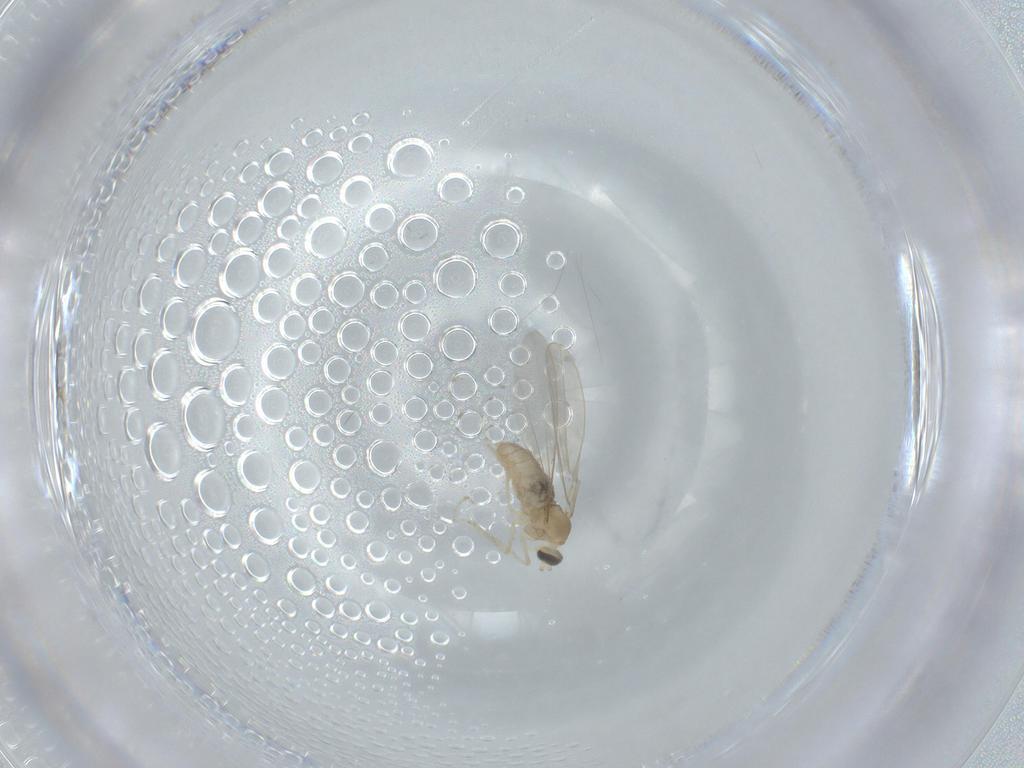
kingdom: Animalia
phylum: Arthropoda
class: Insecta
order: Diptera
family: Cecidomyiidae
